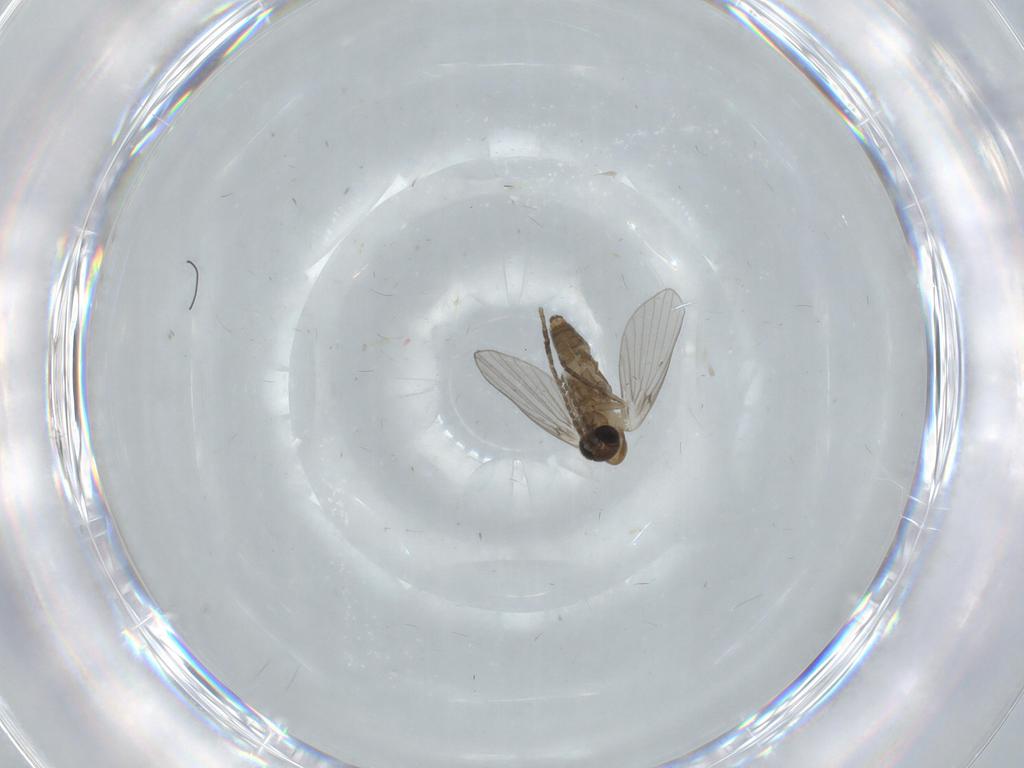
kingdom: Animalia
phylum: Arthropoda
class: Insecta
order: Diptera
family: Psychodidae
